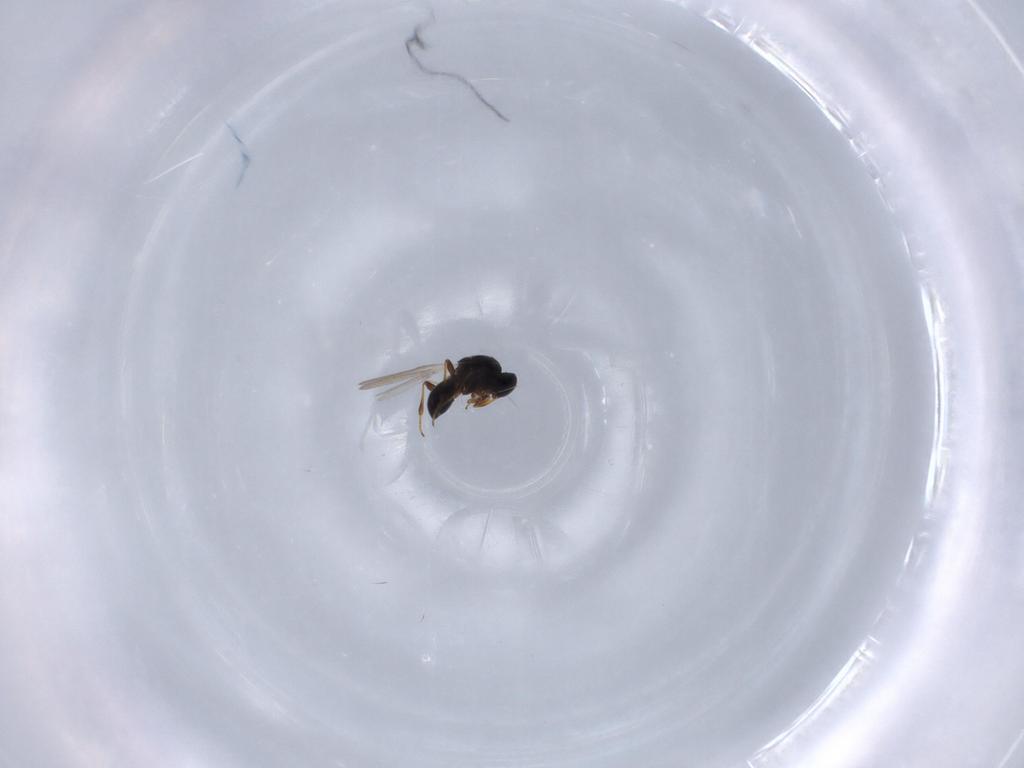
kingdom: Animalia
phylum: Arthropoda
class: Insecta
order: Hymenoptera
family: Platygastridae
